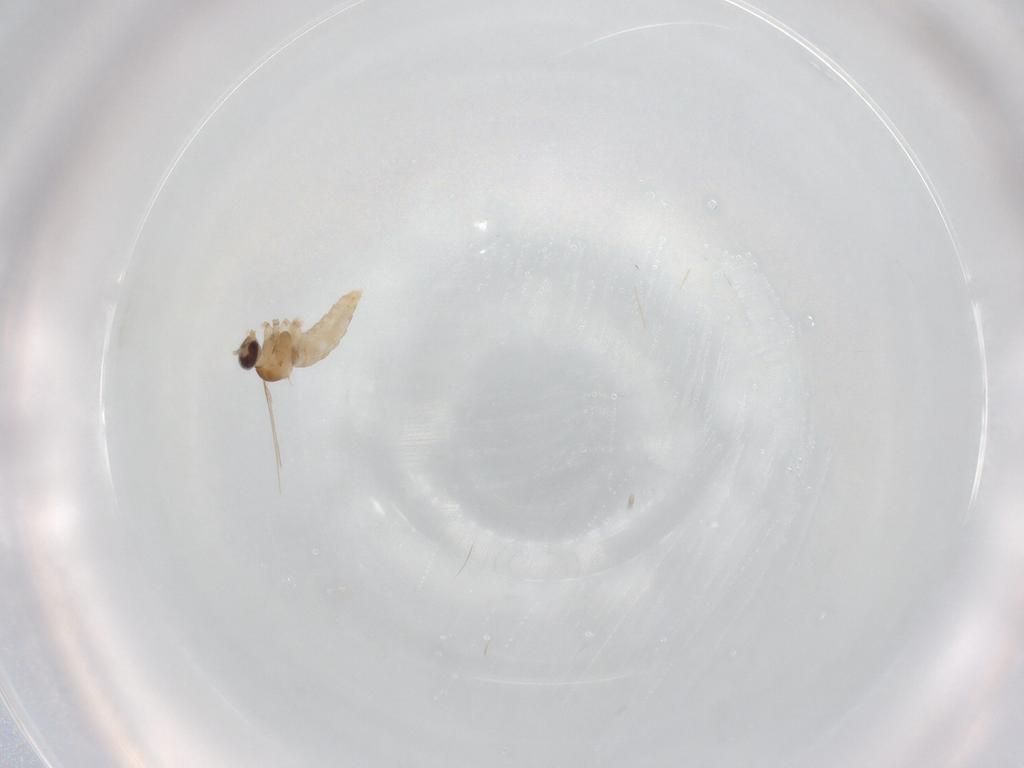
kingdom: Animalia
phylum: Arthropoda
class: Insecta
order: Diptera
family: Cecidomyiidae
